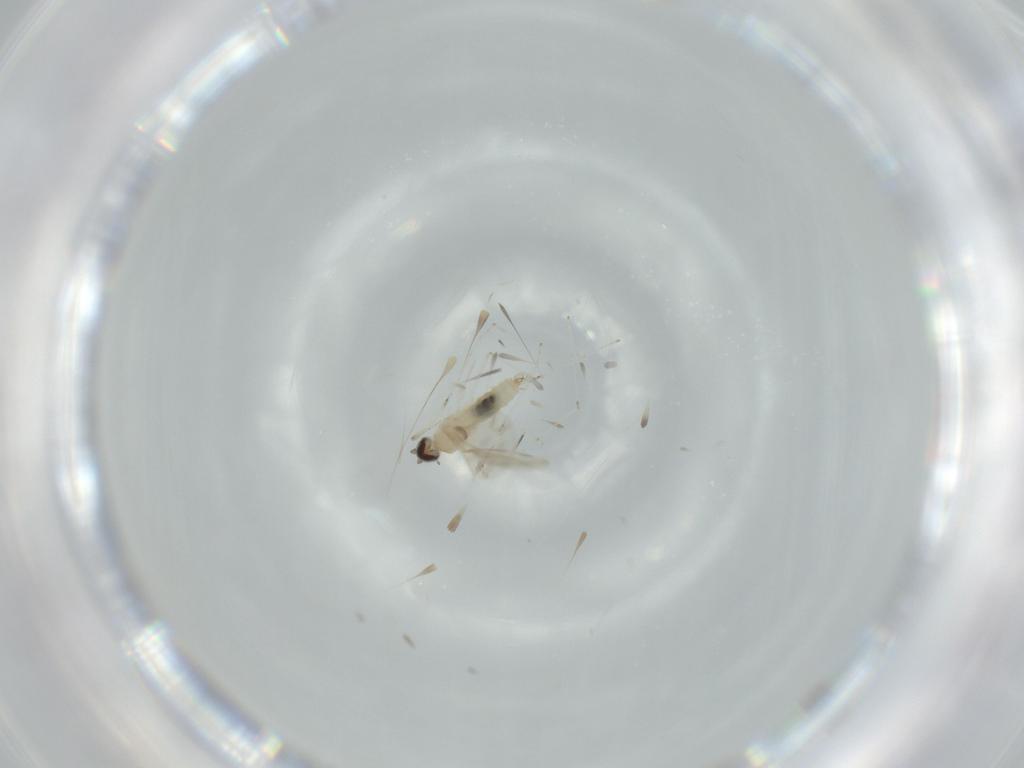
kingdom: Animalia
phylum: Arthropoda
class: Insecta
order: Diptera
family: Cecidomyiidae
